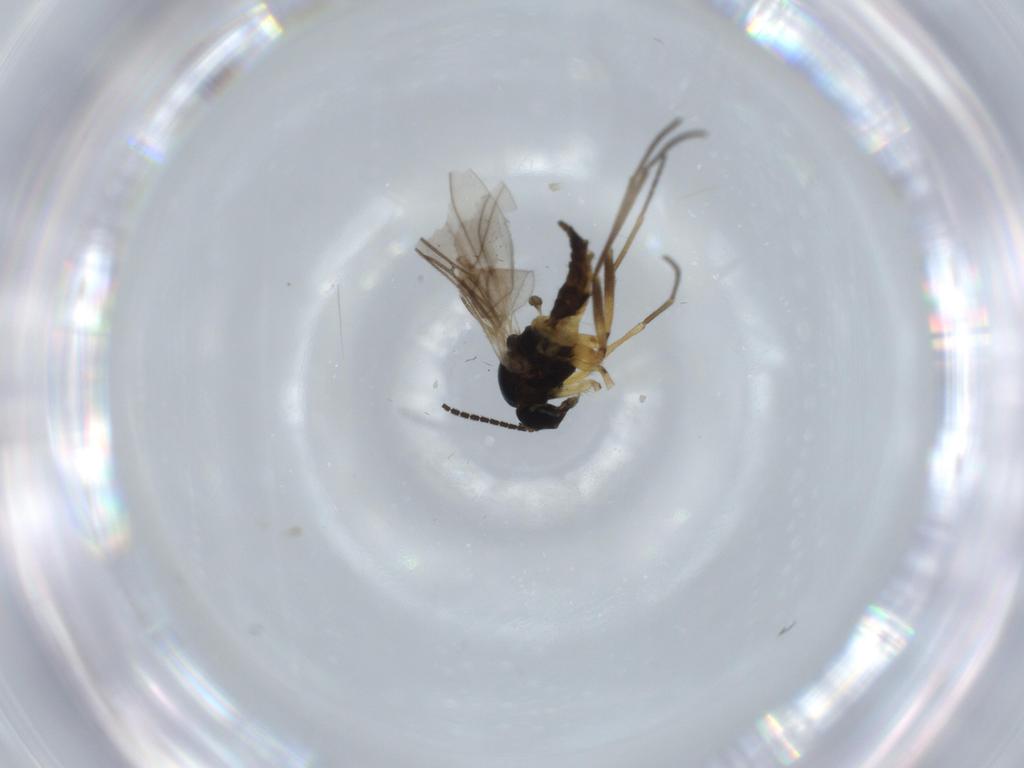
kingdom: Animalia
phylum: Arthropoda
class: Insecta
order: Diptera
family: Sciaridae
